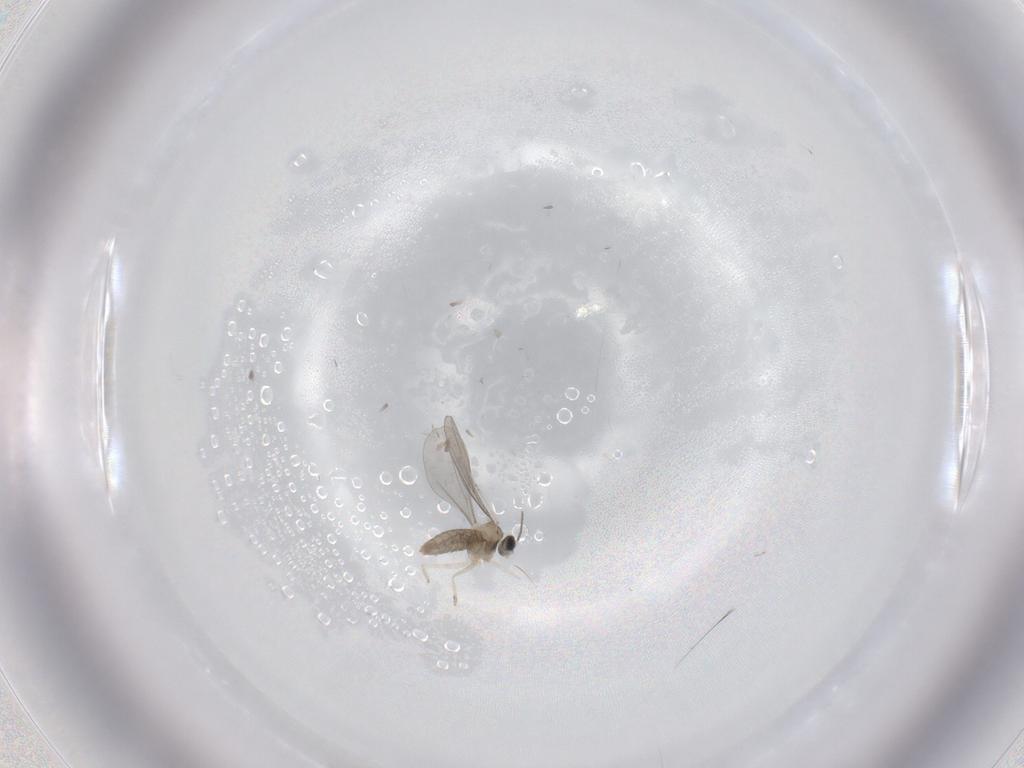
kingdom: Animalia
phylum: Arthropoda
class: Insecta
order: Diptera
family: Cecidomyiidae
